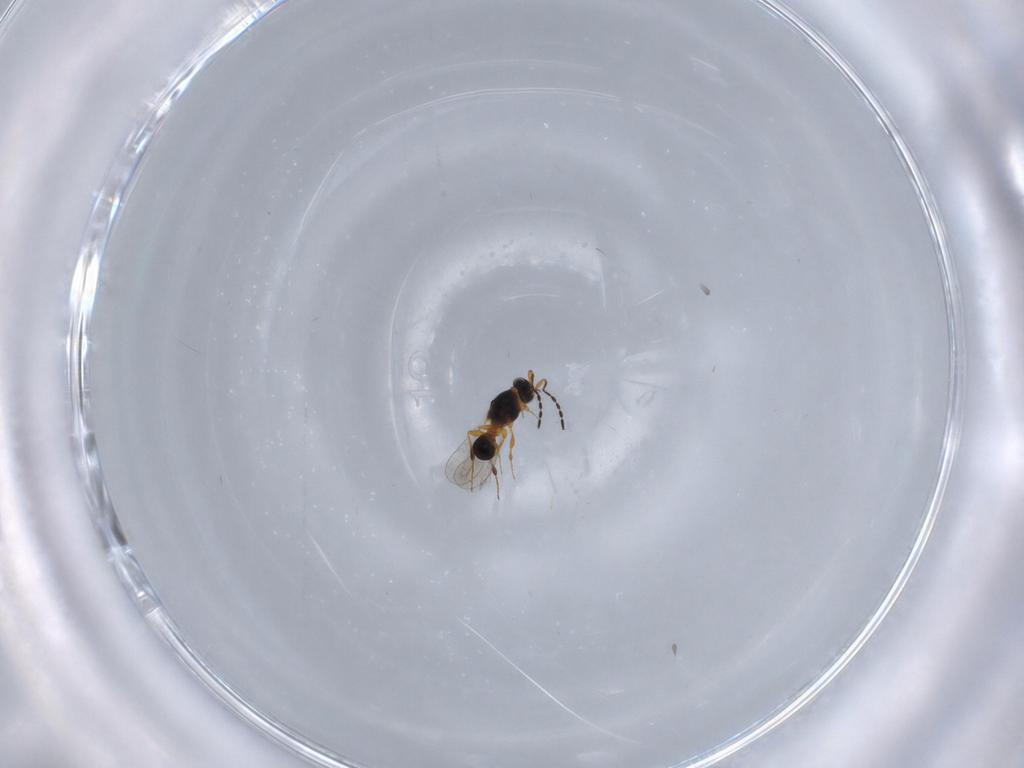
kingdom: Animalia
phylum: Arthropoda
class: Insecta
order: Hymenoptera
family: Platygastridae
